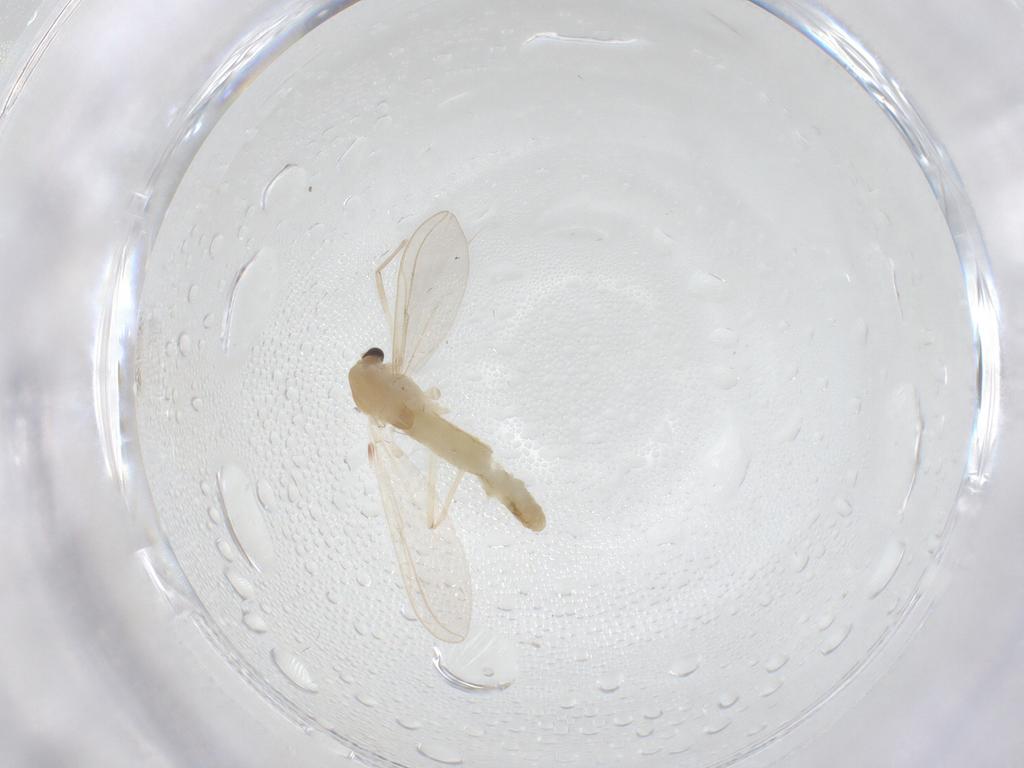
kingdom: Animalia
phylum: Arthropoda
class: Insecta
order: Diptera
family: Chironomidae
